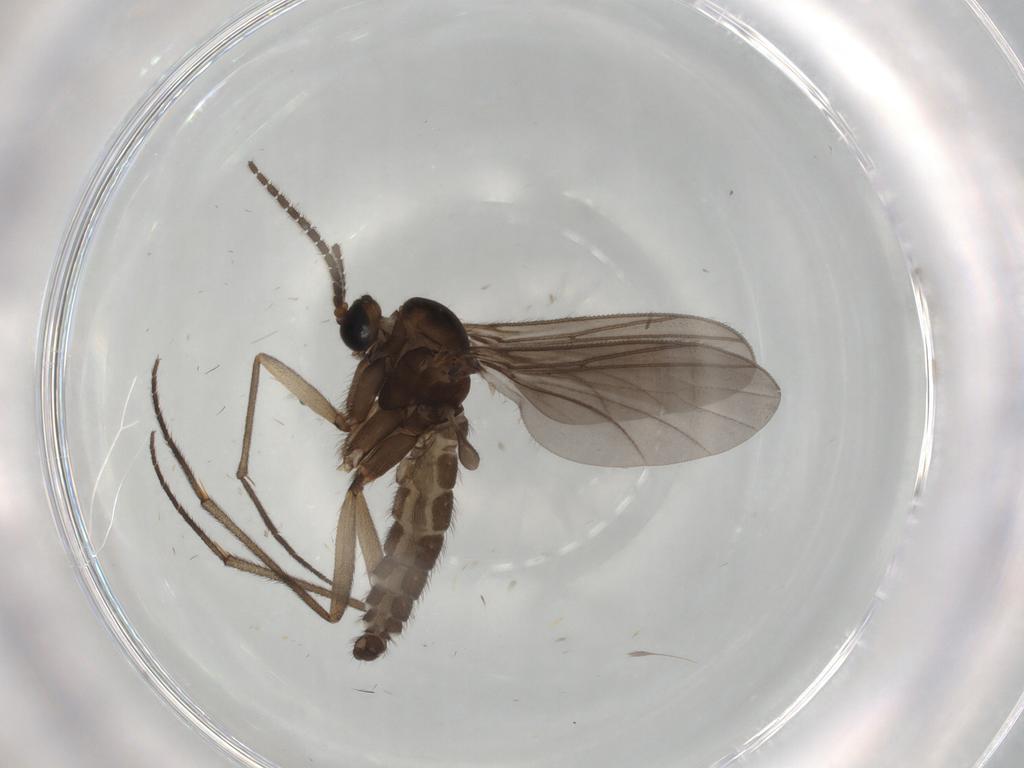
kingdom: Animalia
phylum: Arthropoda
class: Insecta
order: Diptera
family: Sciaridae
